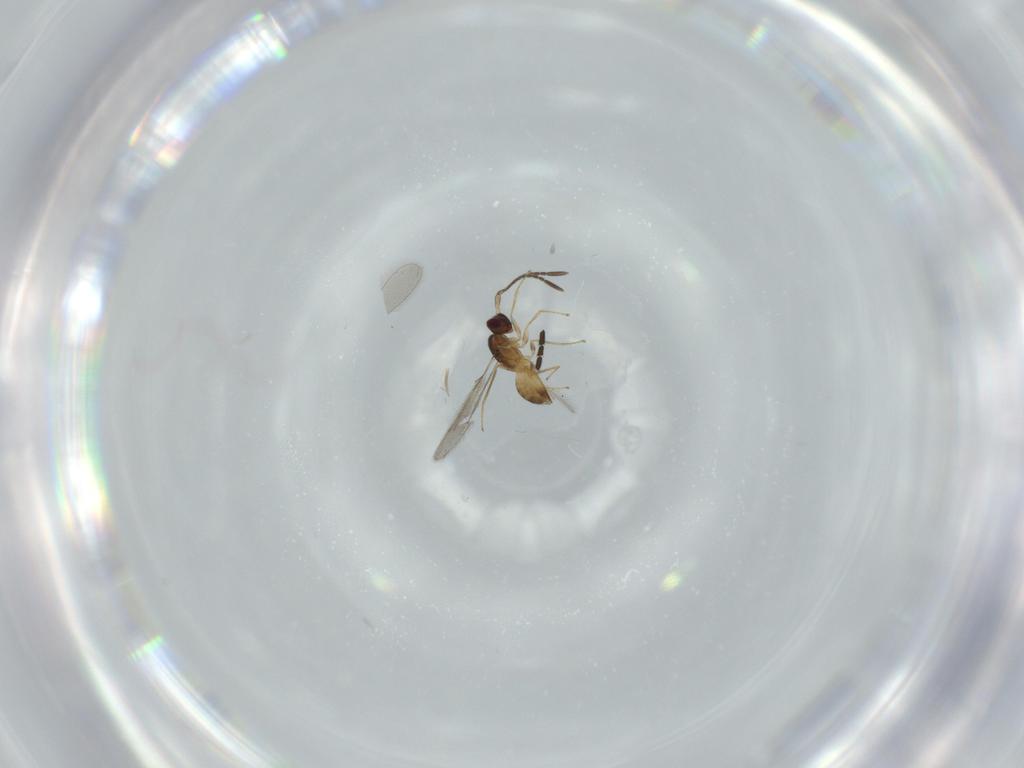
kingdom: Animalia
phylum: Arthropoda
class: Insecta
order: Hymenoptera
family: Mymaridae
